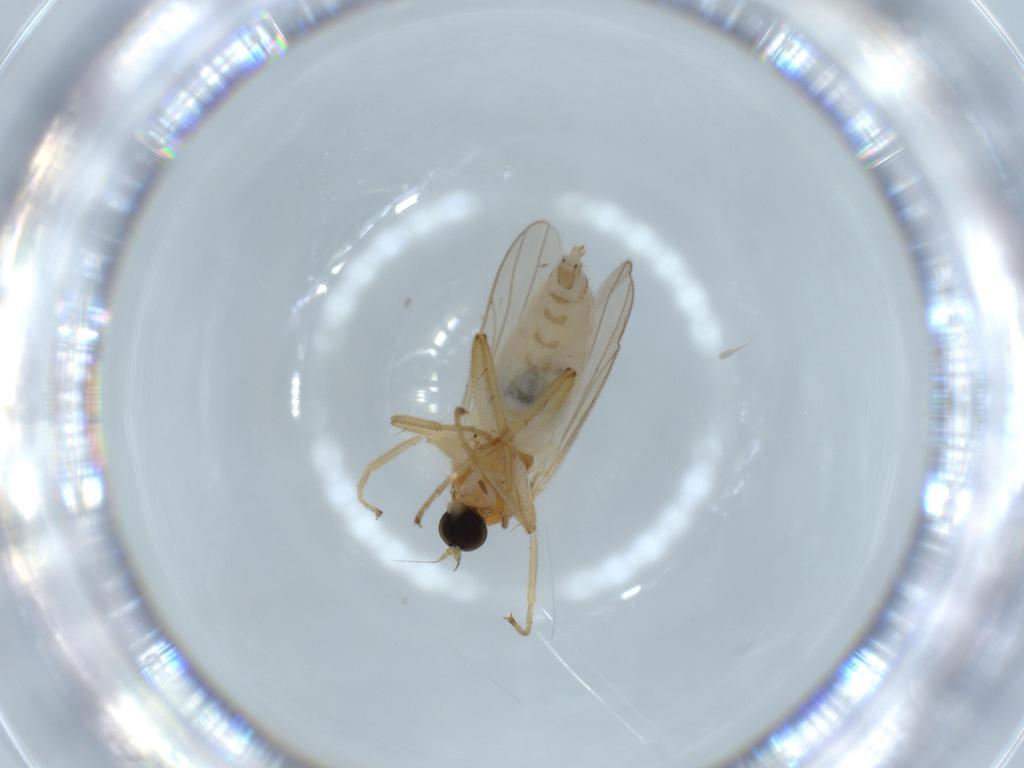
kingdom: Animalia
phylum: Arthropoda
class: Insecta
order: Diptera
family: Hybotidae
